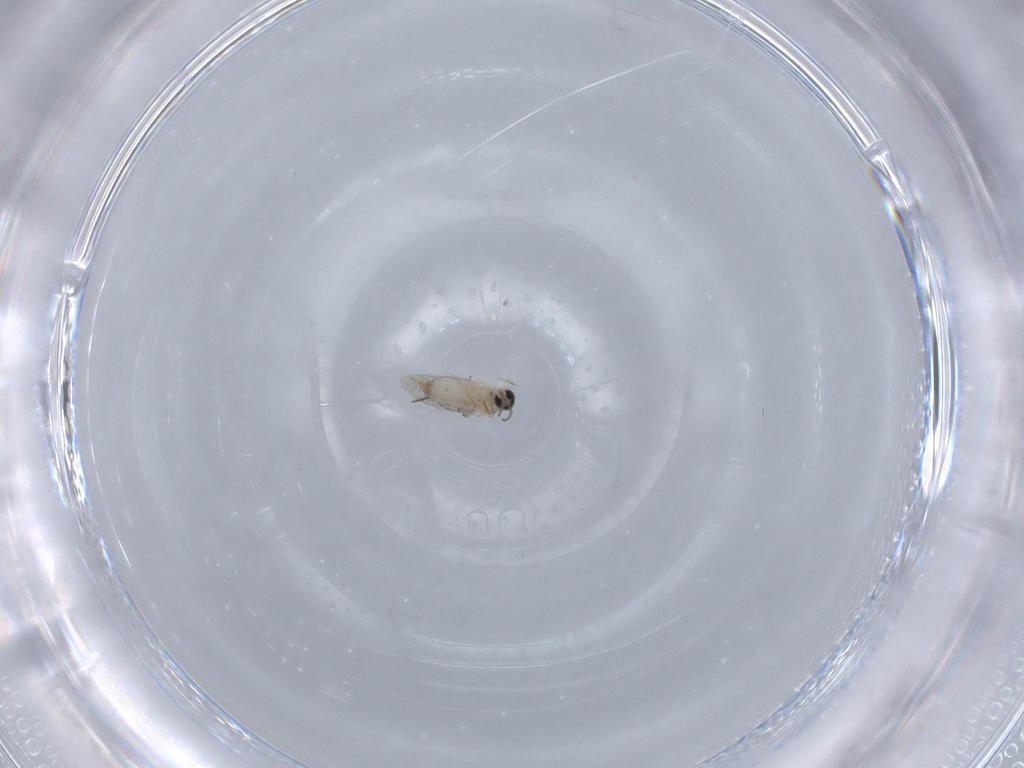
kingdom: Animalia
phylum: Arthropoda
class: Insecta
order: Diptera
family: Cecidomyiidae
